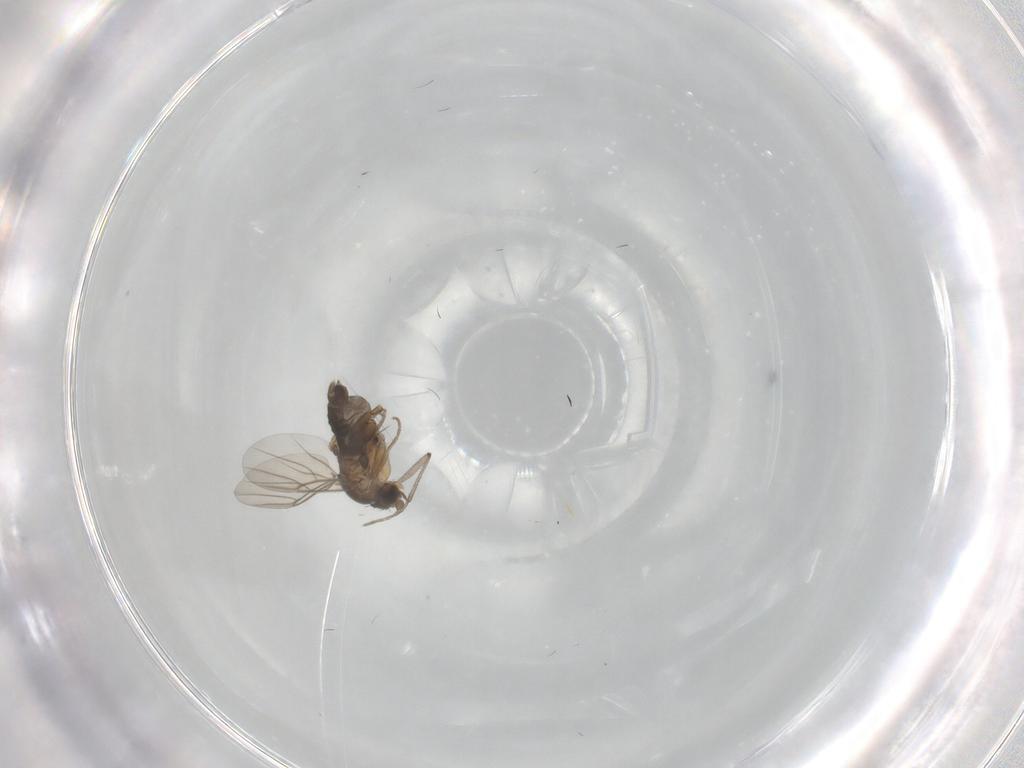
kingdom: Animalia
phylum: Arthropoda
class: Insecta
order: Diptera
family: Phoridae
